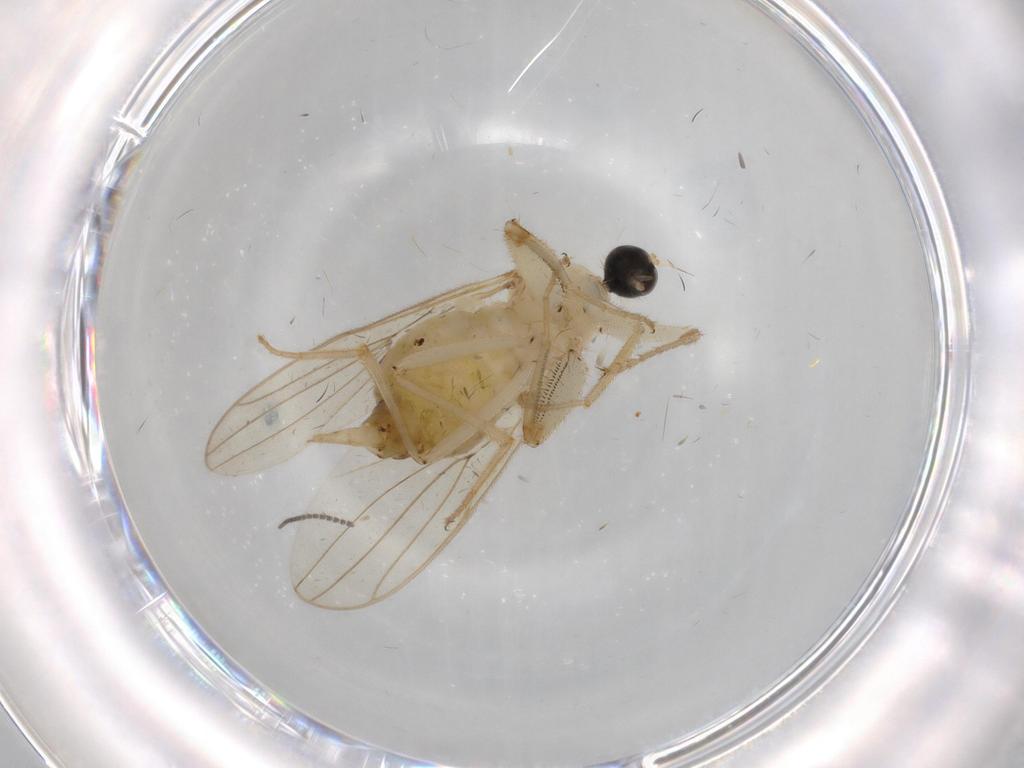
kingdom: Animalia
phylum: Arthropoda
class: Insecta
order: Diptera
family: Hybotidae
